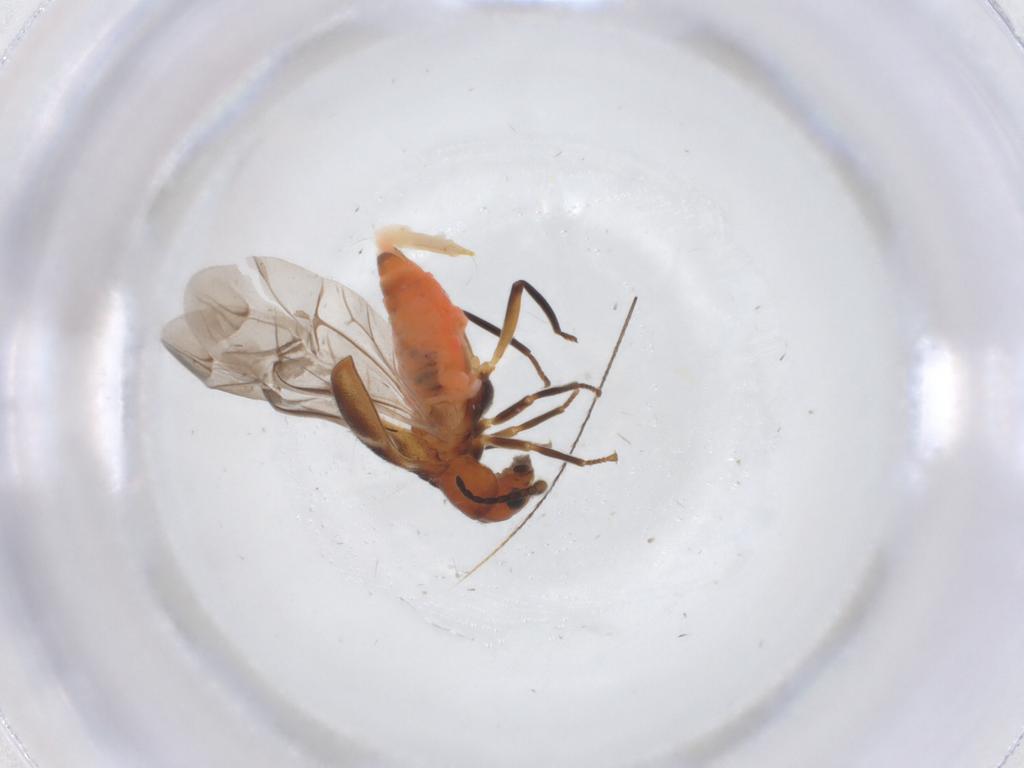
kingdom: Animalia
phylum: Arthropoda
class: Insecta
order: Coleoptera
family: Melyridae
